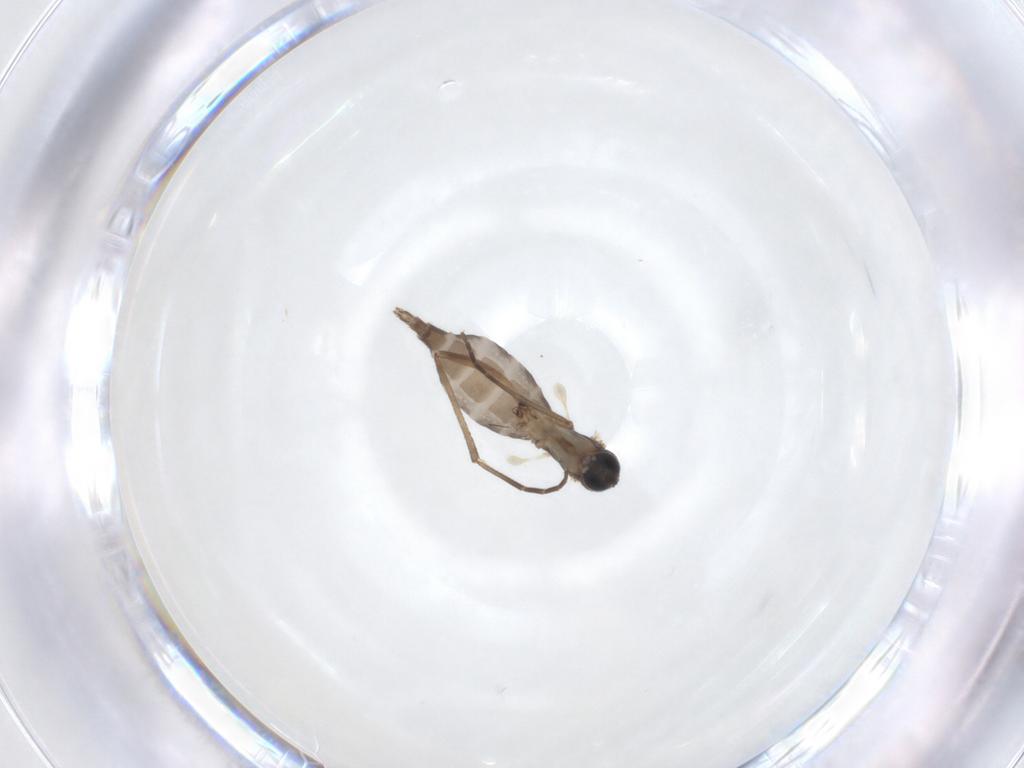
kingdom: Animalia
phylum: Arthropoda
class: Insecta
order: Diptera
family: Sciaridae
